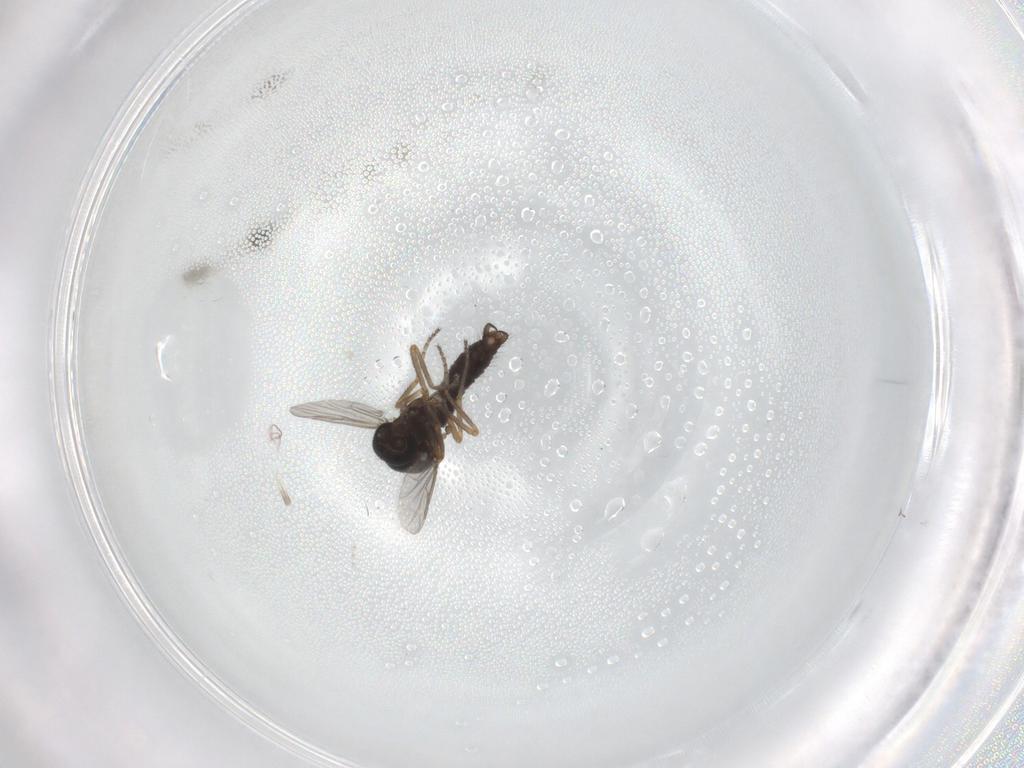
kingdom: Animalia
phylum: Arthropoda
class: Insecta
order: Diptera
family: Ceratopogonidae
